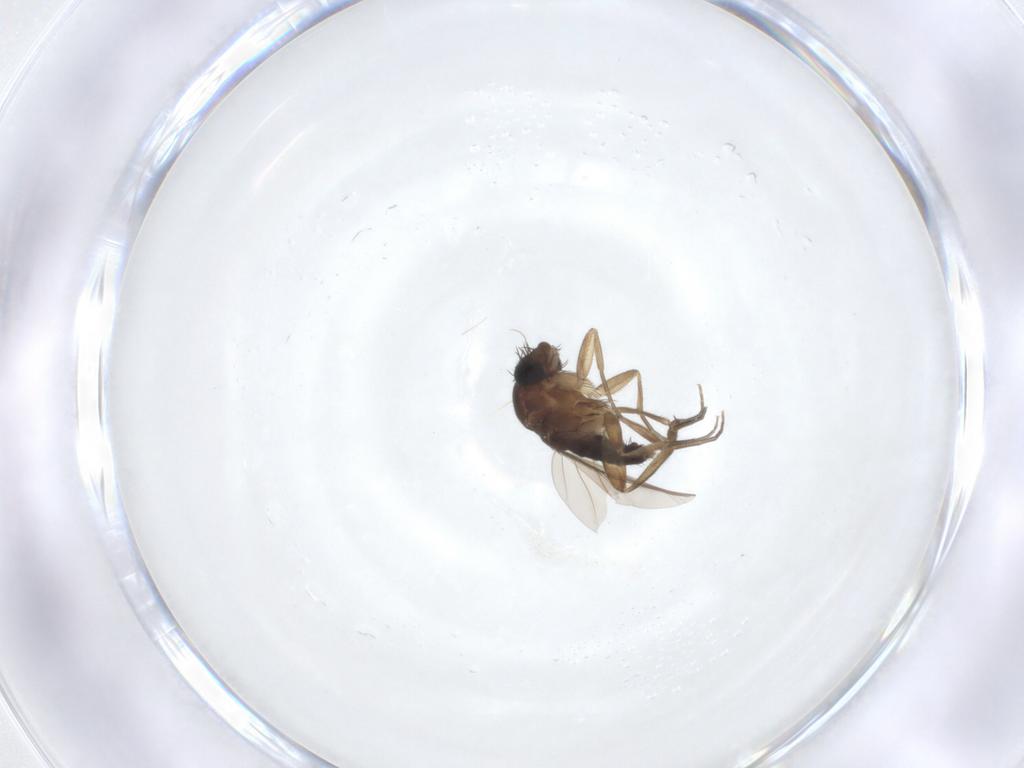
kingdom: Animalia
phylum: Arthropoda
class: Insecta
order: Diptera
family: Phoridae
